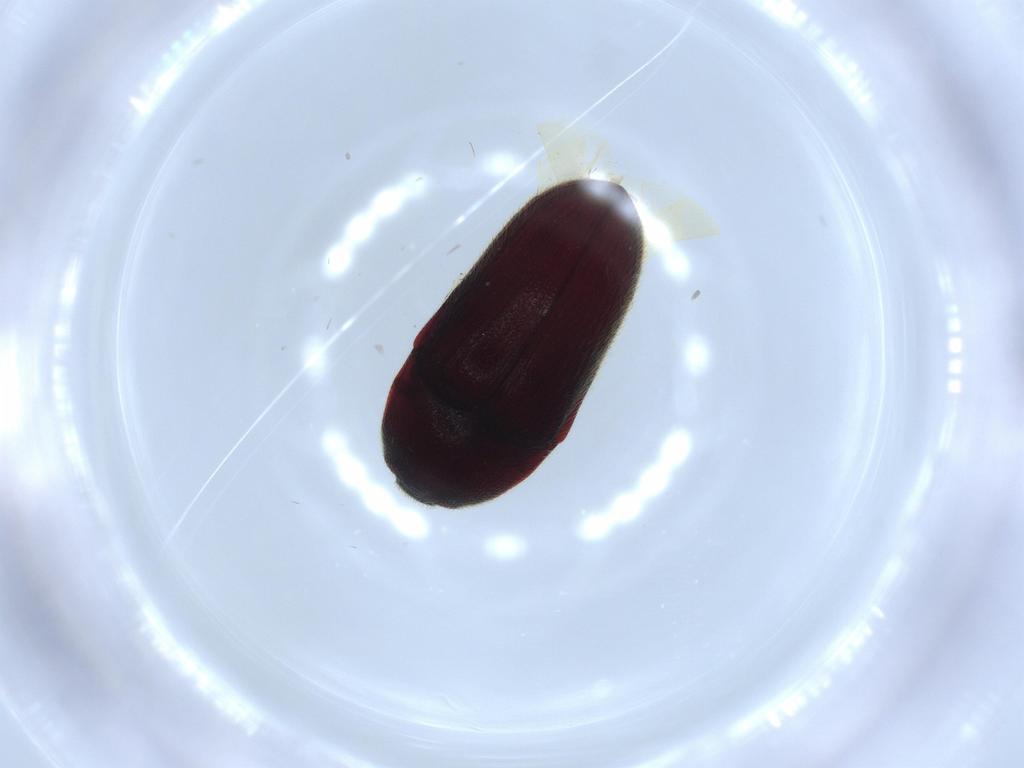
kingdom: Animalia
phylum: Arthropoda
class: Insecta
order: Coleoptera
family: Throscidae
